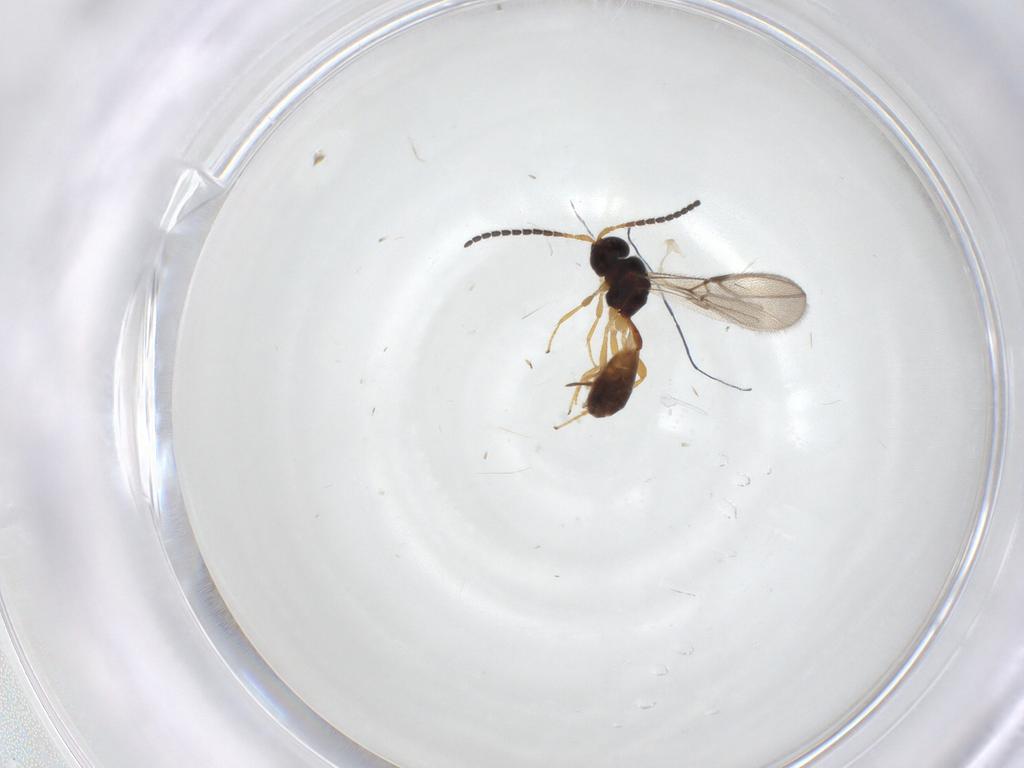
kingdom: Animalia
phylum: Arthropoda
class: Insecta
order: Hymenoptera
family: Braconidae
